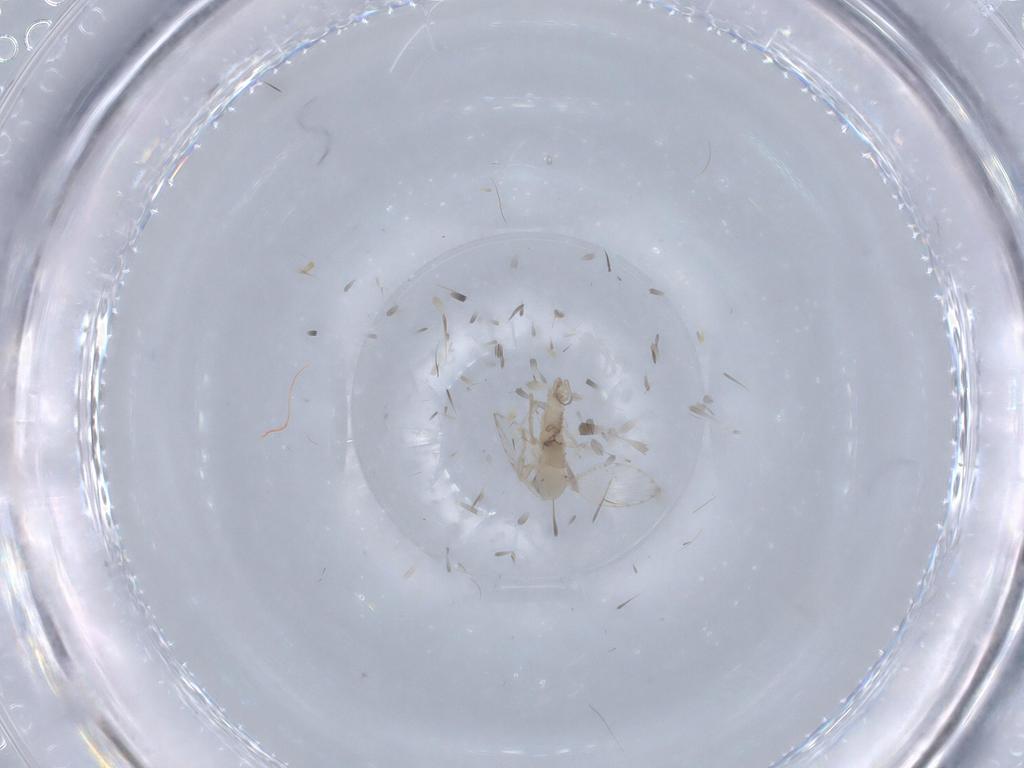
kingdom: Animalia
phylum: Arthropoda
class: Insecta
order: Diptera
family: Psychodidae
